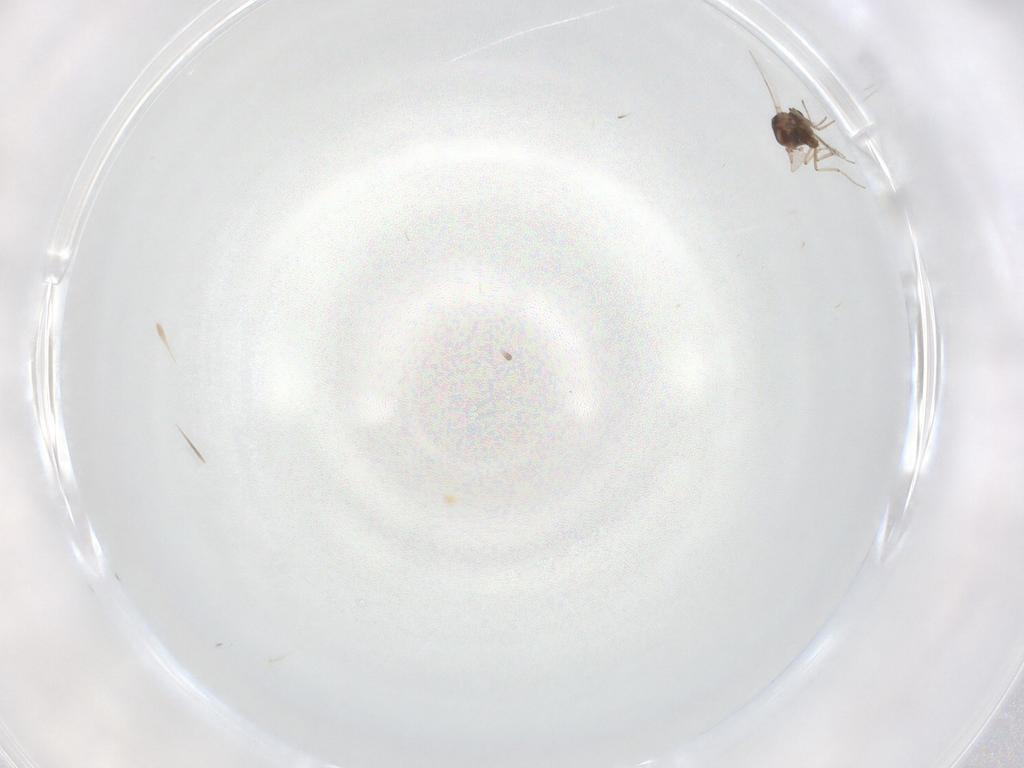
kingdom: Animalia
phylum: Arthropoda
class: Insecta
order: Diptera
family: Cecidomyiidae
